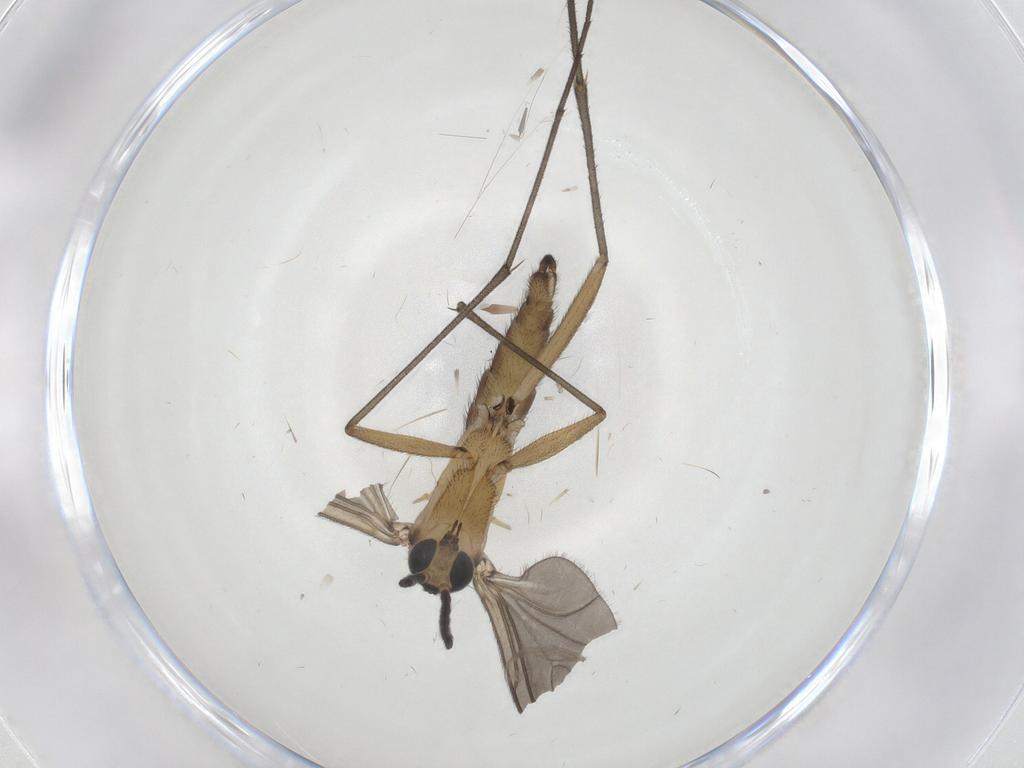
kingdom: Animalia
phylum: Arthropoda
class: Insecta
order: Diptera
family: Sciaridae
